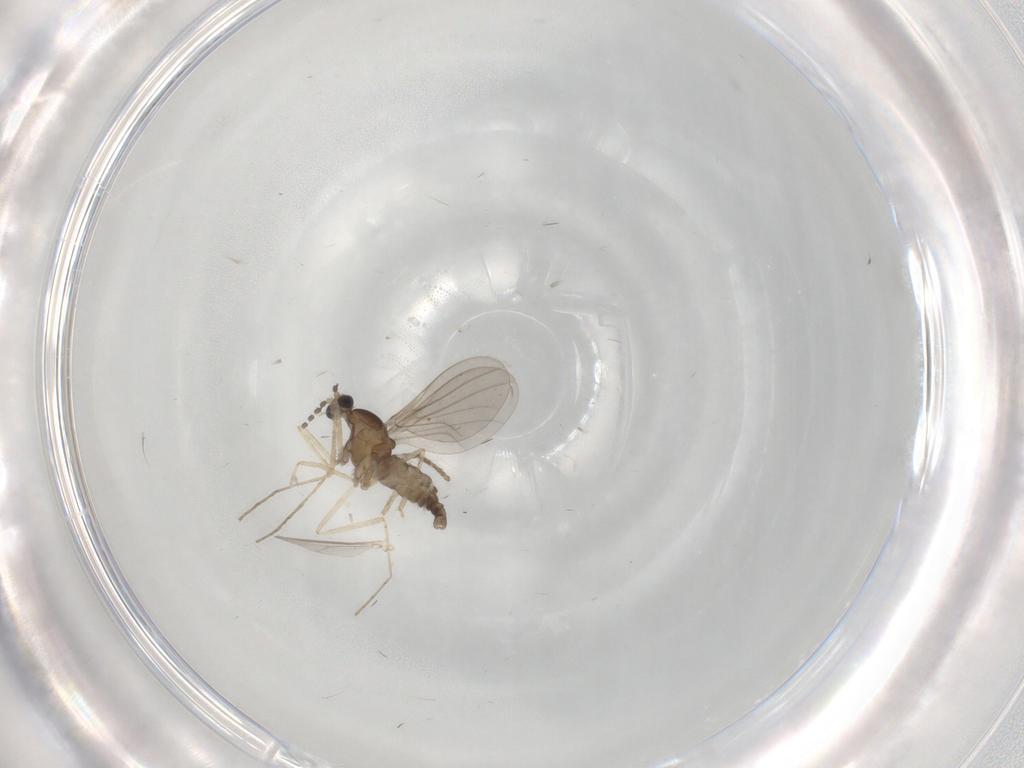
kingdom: Animalia
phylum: Arthropoda
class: Insecta
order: Diptera
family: Cecidomyiidae
